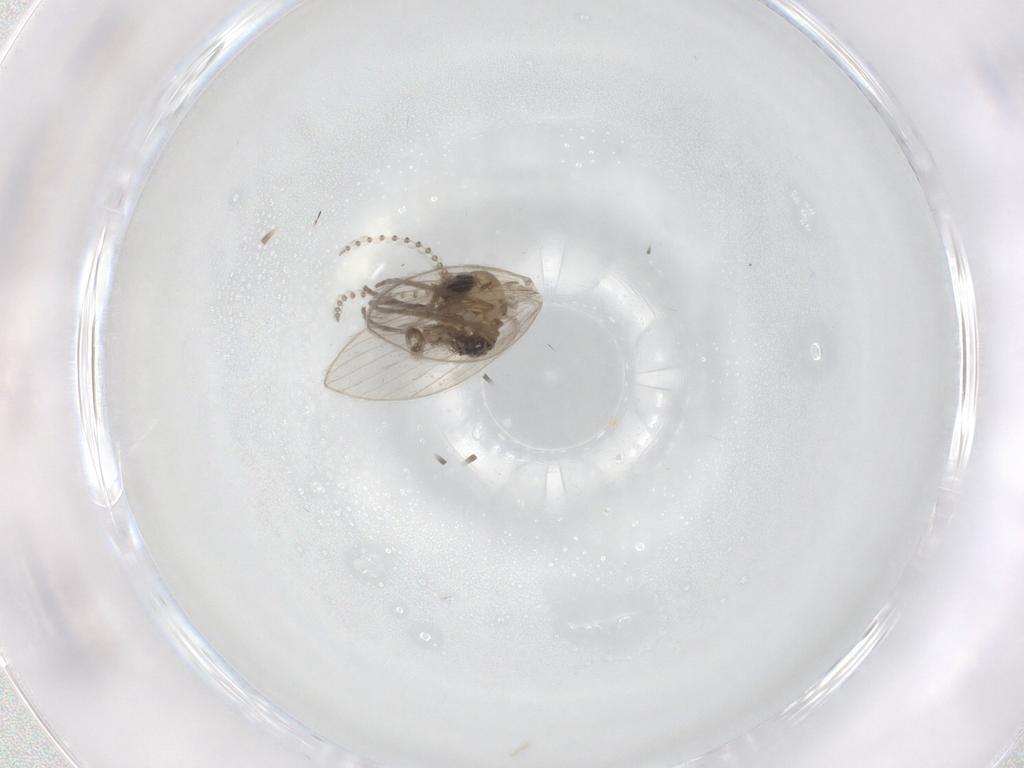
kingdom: Animalia
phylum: Arthropoda
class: Insecta
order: Diptera
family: Psychodidae
